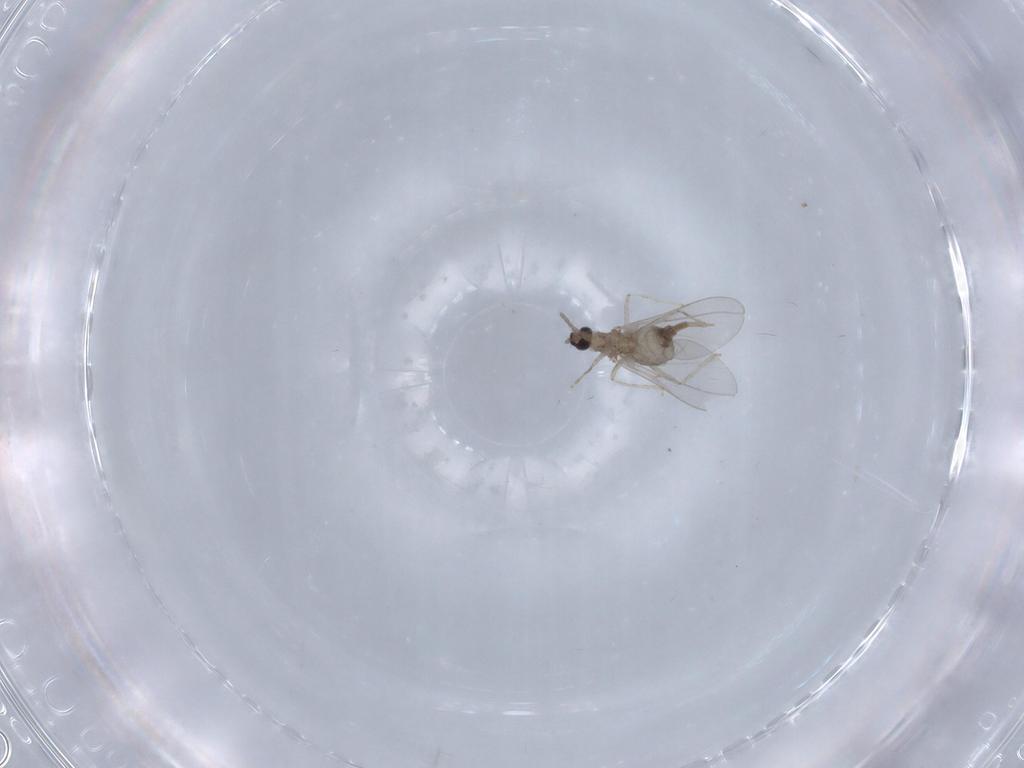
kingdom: Animalia
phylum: Arthropoda
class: Insecta
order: Diptera
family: Cecidomyiidae
